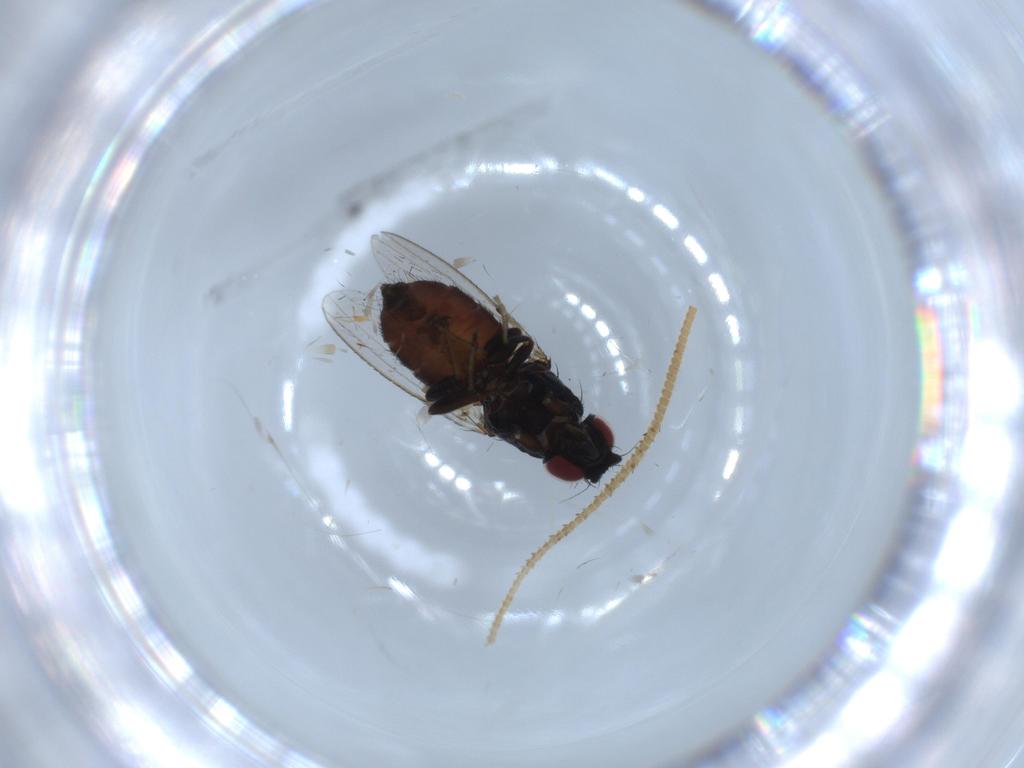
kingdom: Animalia
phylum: Arthropoda
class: Insecta
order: Diptera
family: Milichiidae
